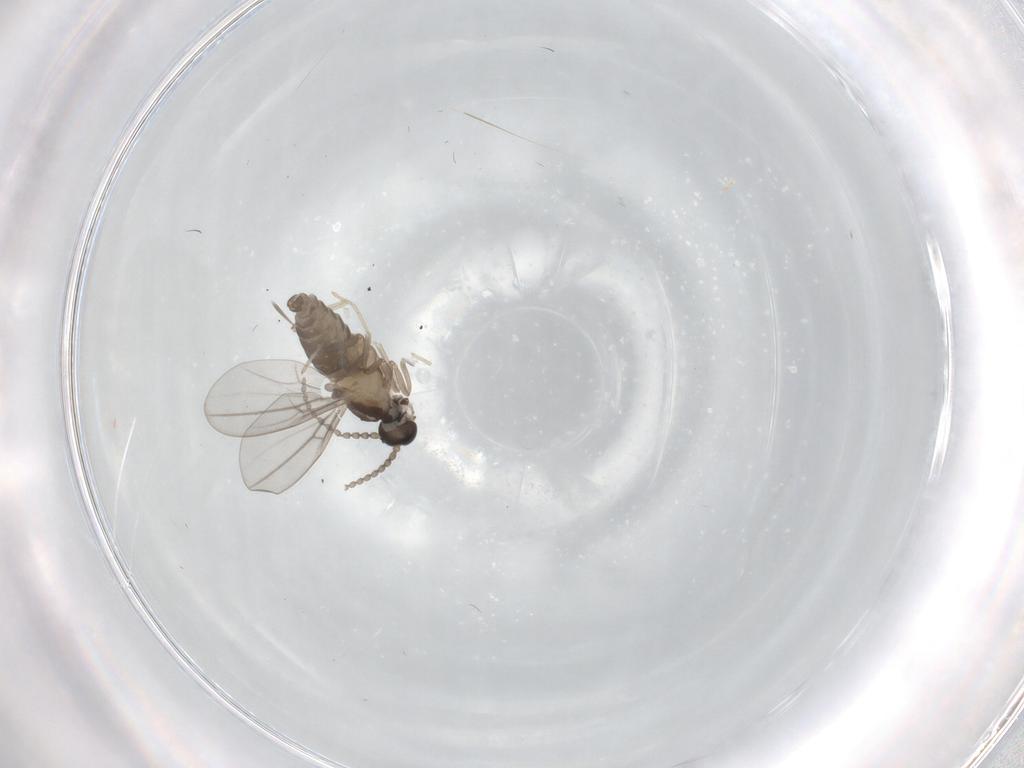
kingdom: Animalia
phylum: Arthropoda
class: Insecta
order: Diptera
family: Cecidomyiidae
